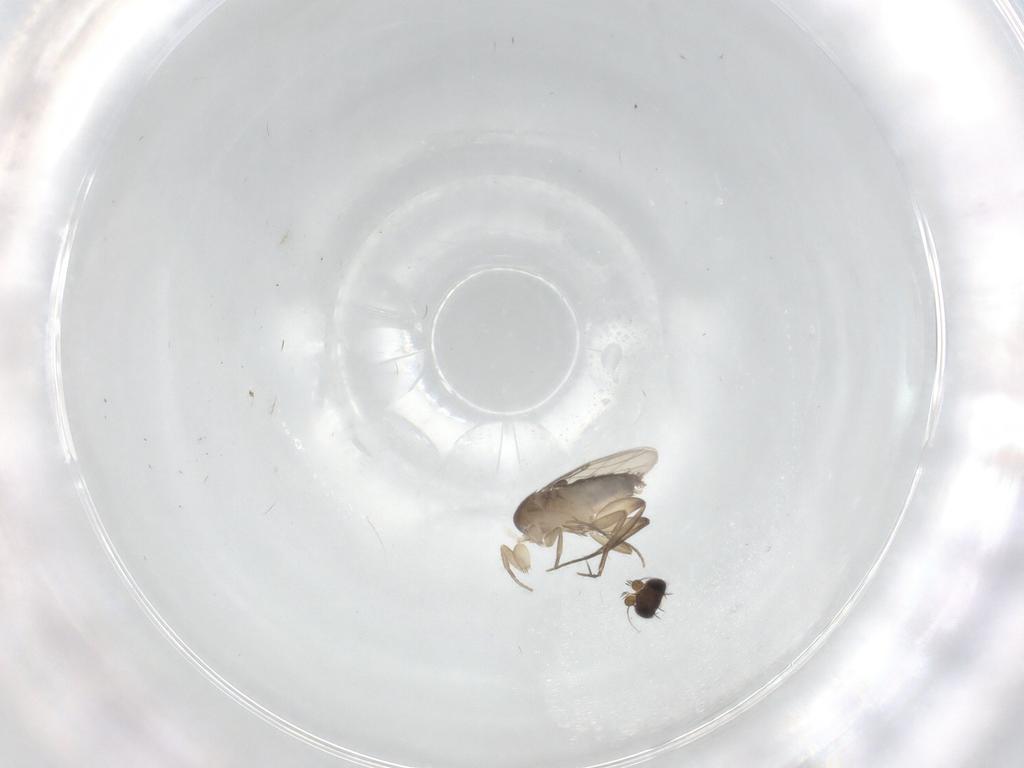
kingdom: Animalia
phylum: Arthropoda
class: Insecta
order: Diptera
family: Phoridae
